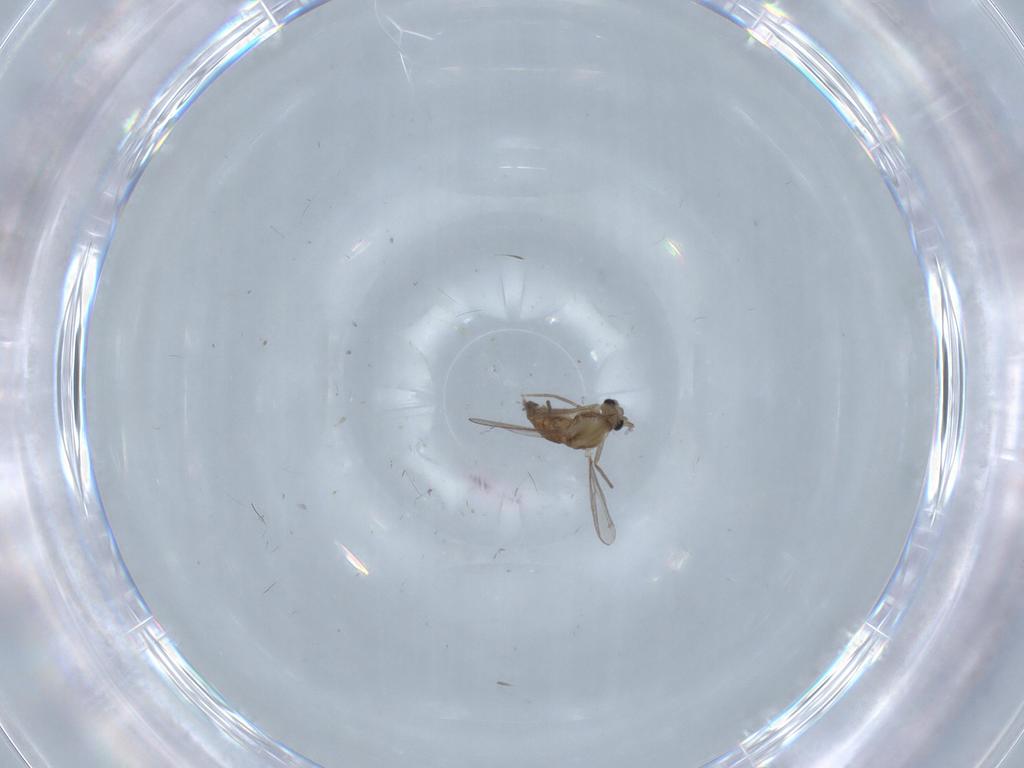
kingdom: Animalia
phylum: Arthropoda
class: Insecta
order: Diptera
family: Chironomidae
